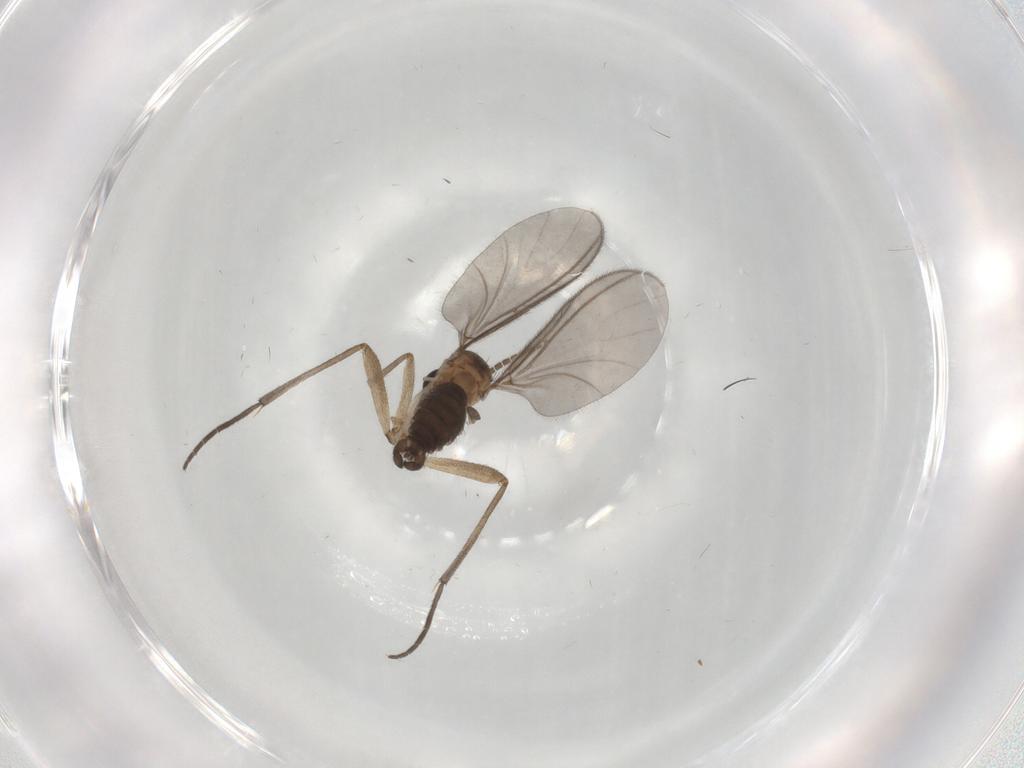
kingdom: Animalia
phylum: Arthropoda
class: Insecta
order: Diptera
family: Sciaridae
